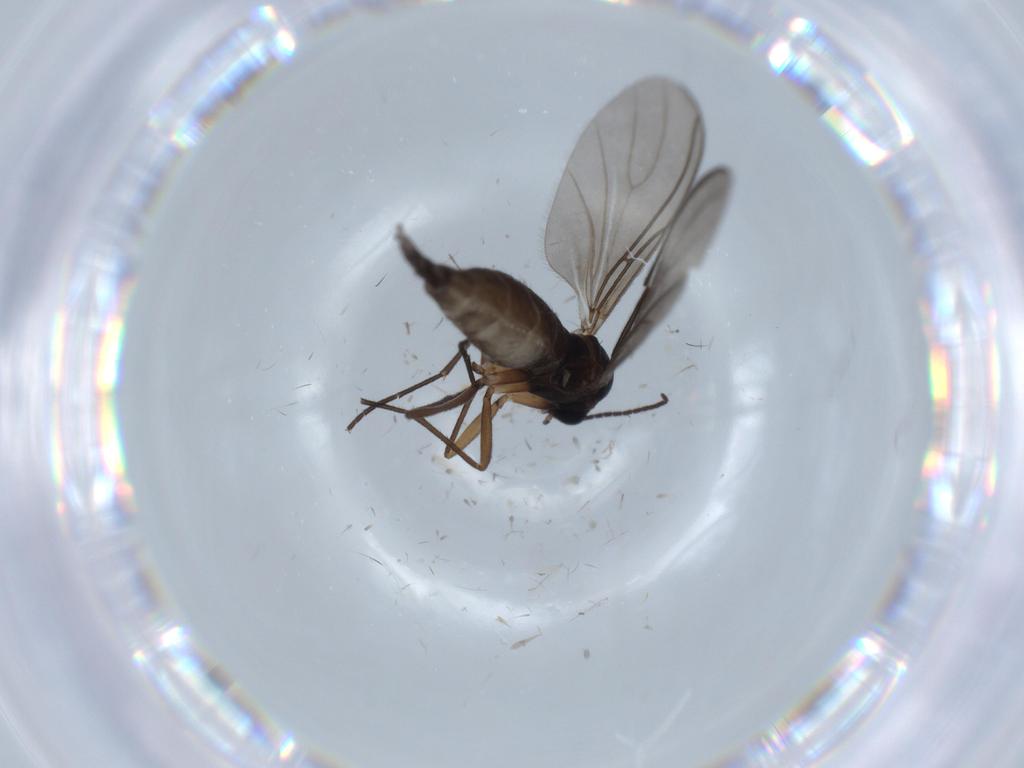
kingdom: Animalia
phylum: Arthropoda
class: Insecta
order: Diptera
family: Sciaridae
